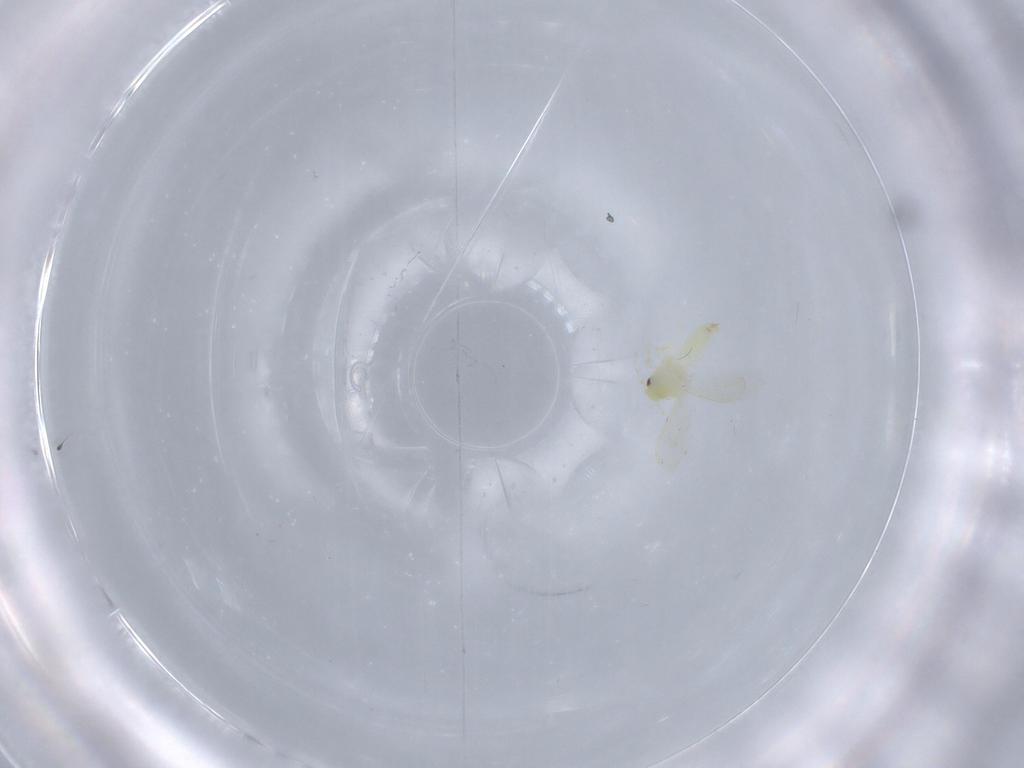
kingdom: Animalia
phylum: Arthropoda
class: Insecta
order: Hemiptera
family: Aleyrodidae
